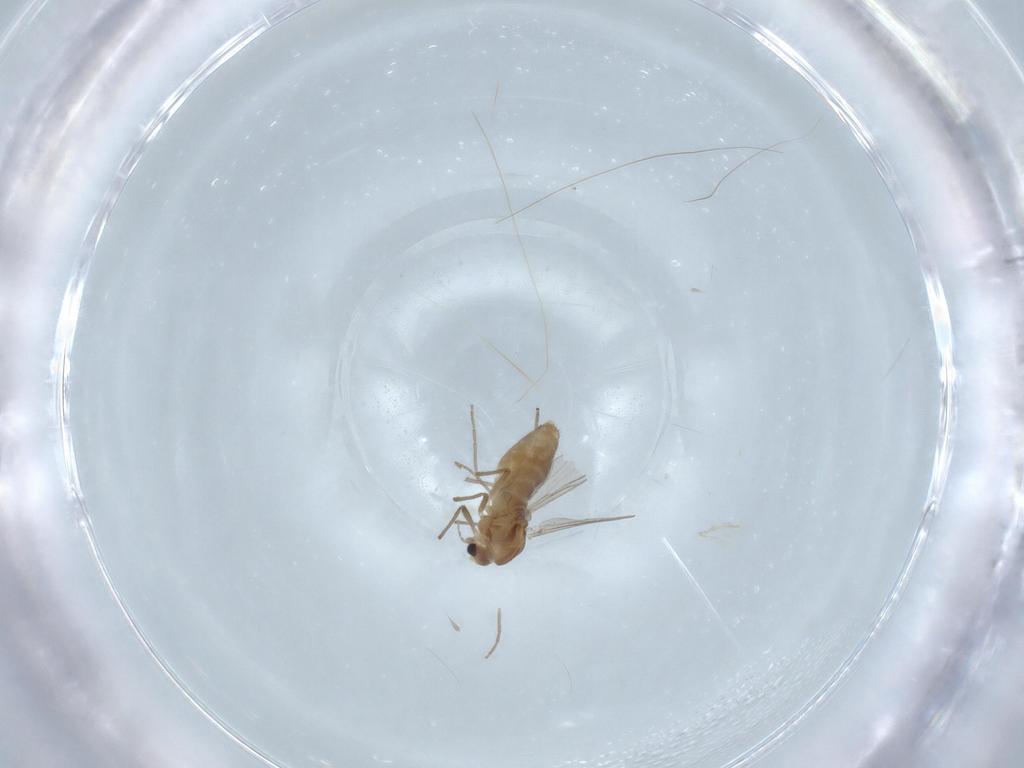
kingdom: Animalia
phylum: Arthropoda
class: Insecta
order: Diptera
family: Chironomidae
